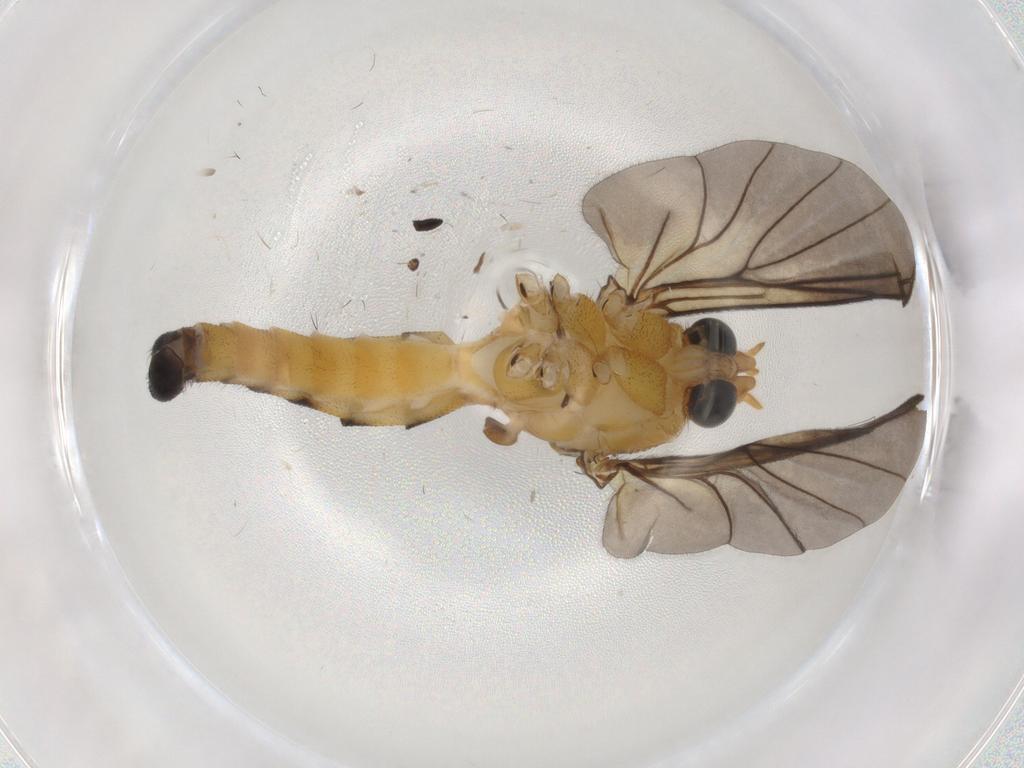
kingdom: Animalia
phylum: Arthropoda
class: Insecta
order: Diptera
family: Mycetophilidae
